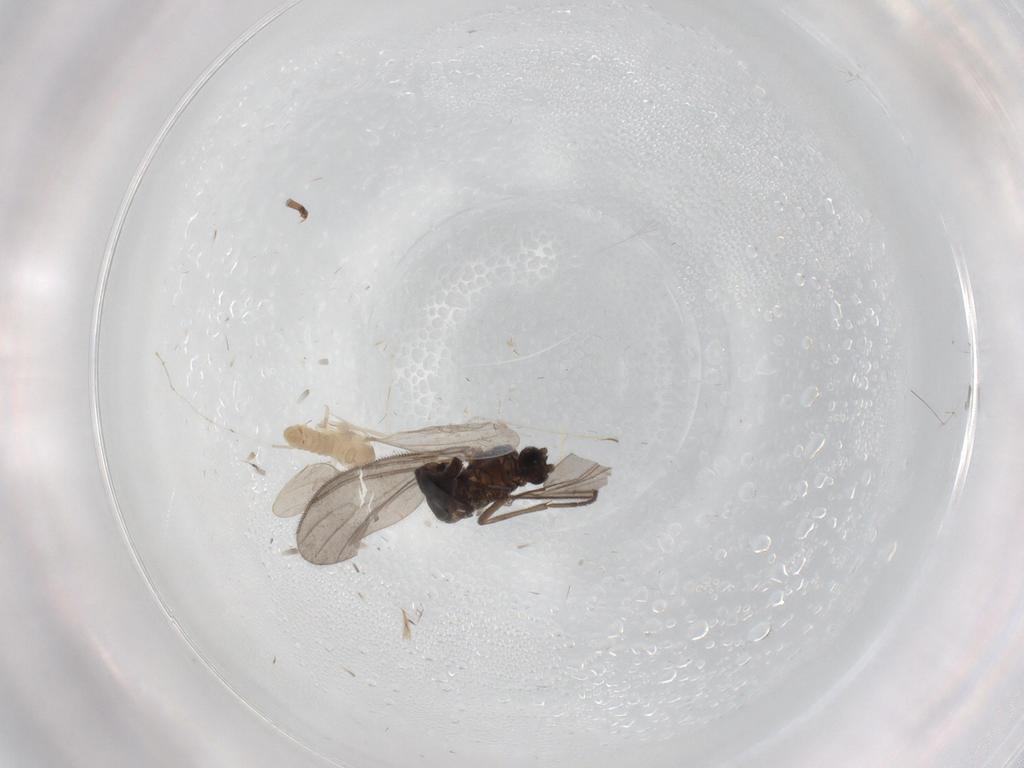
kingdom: Animalia
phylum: Arthropoda
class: Insecta
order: Diptera
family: Sciaridae
